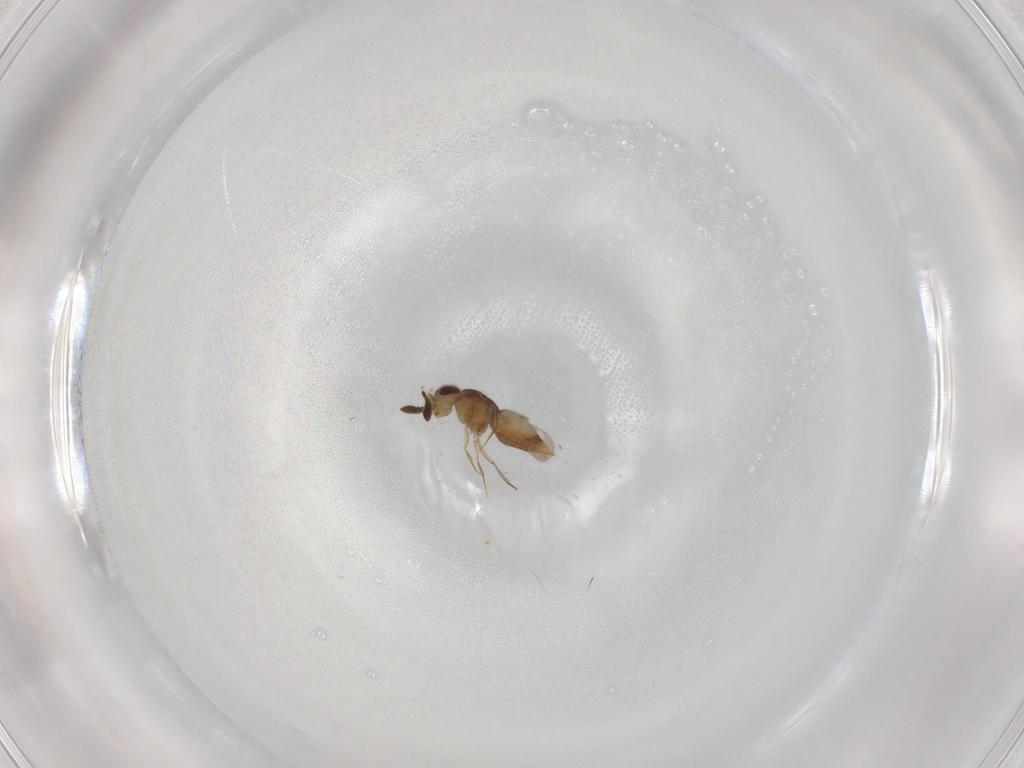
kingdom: Animalia
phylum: Arthropoda
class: Insecta
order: Hymenoptera
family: Ceraphronidae
